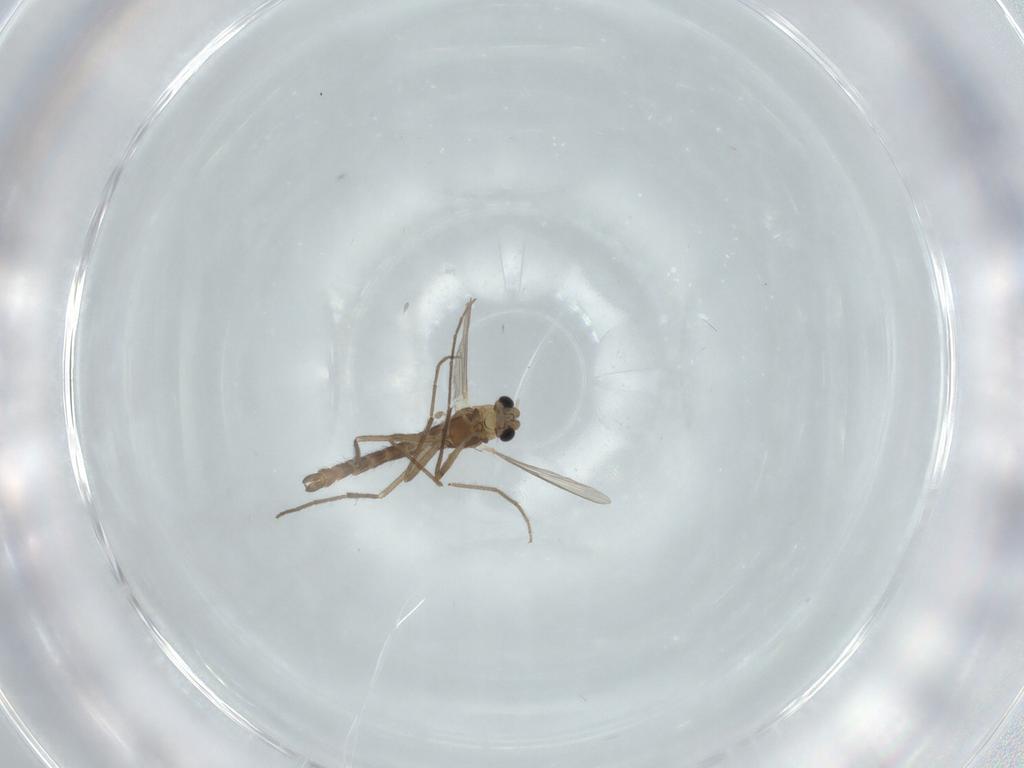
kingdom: Animalia
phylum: Arthropoda
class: Insecta
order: Diptera
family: Chironomidae
